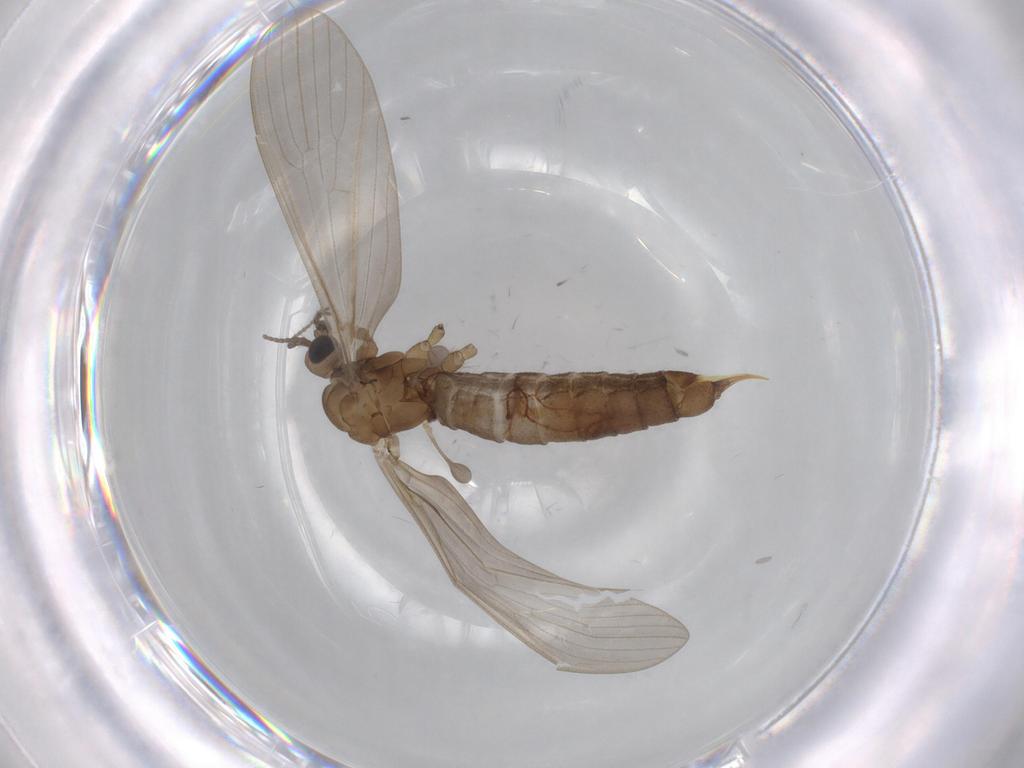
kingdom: Animalia
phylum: Arthropoda
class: Insecta
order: Diptera
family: Limoniidae
